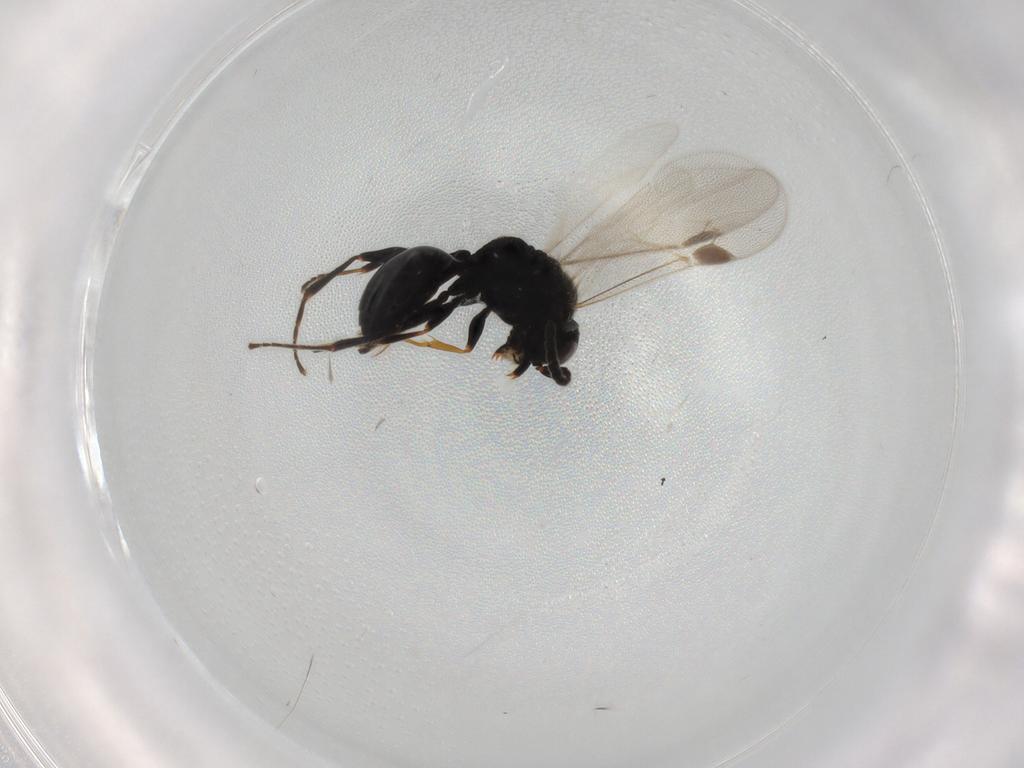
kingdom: Animalia
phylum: Arthropoda
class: Insecta
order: Hymenoptera
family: Dryinidae
